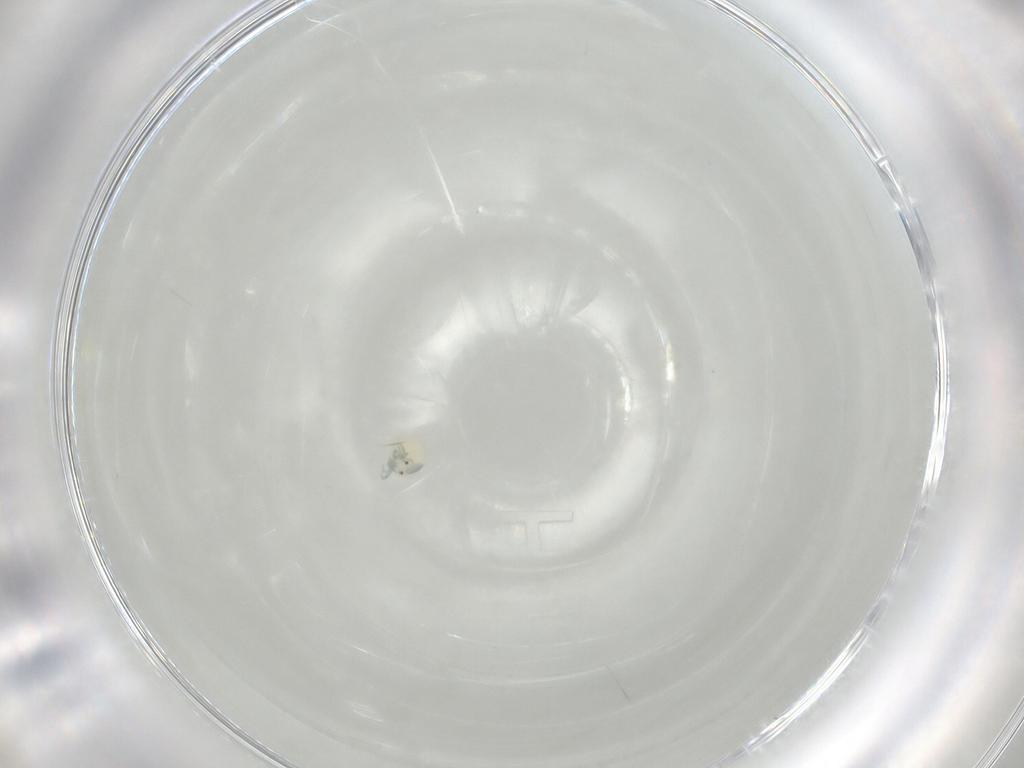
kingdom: Animalia
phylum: Arthropoda
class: Arachnida
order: Trombidiformes
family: Arrenuridae
